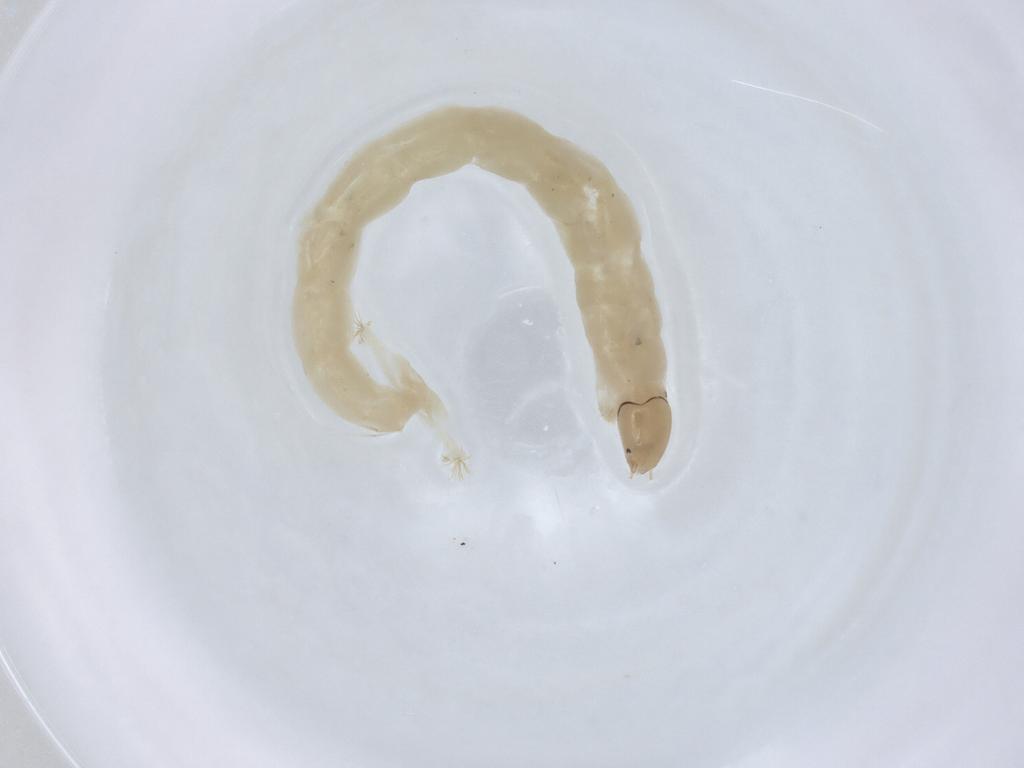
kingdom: Animalia
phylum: Arthropoda
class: Insecta
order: Diptera
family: Chironomidae
